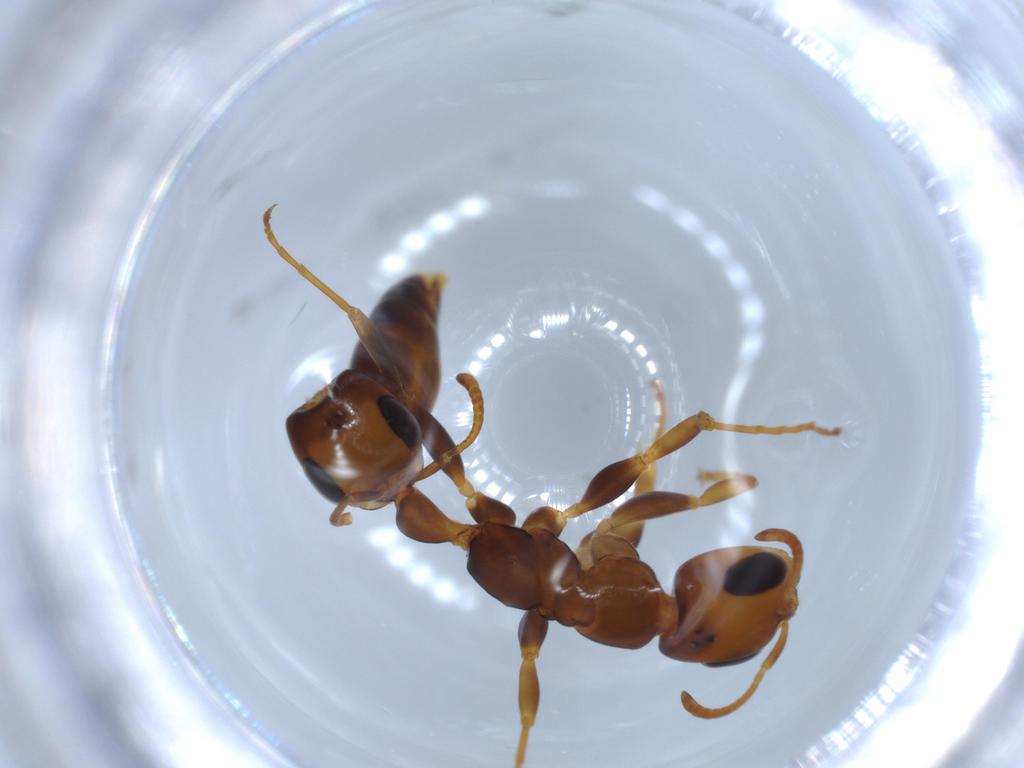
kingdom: Animalia
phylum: Arthropoda
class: Insecta
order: Hymenoptera
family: Formicidae
